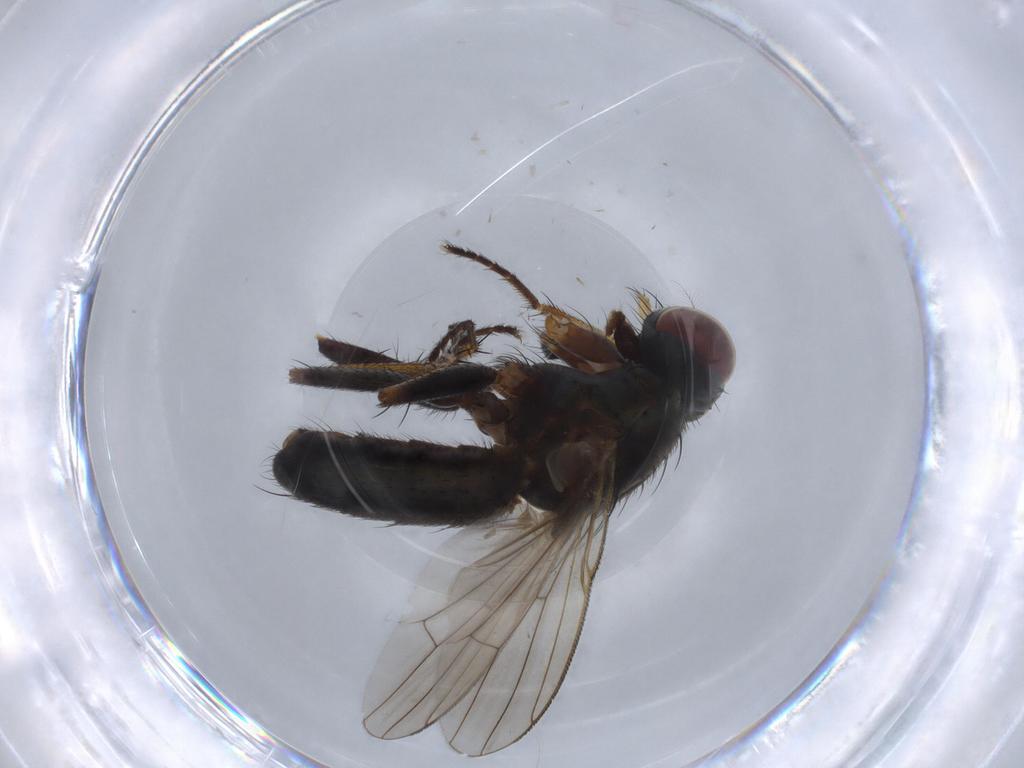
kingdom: Animalia
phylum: Arthropoda
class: Insecta
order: Diptera
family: Muscidae
